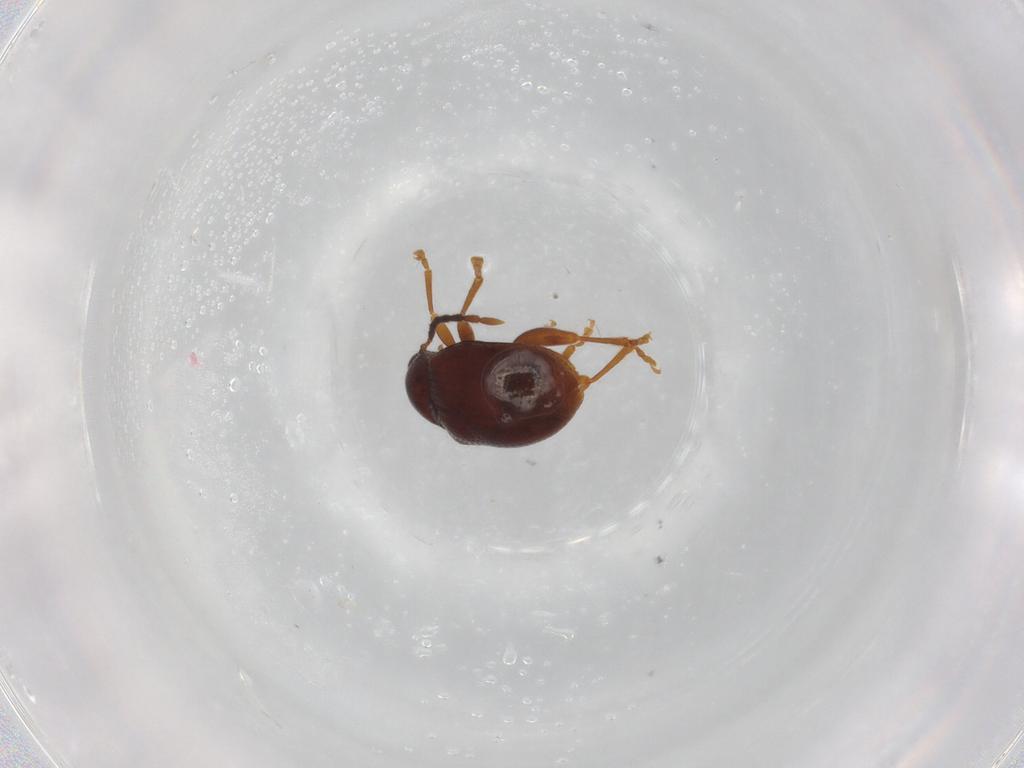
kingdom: Animalia
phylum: Arthropoda
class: Insecta
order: Coleoptera
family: Chrysomelidae
